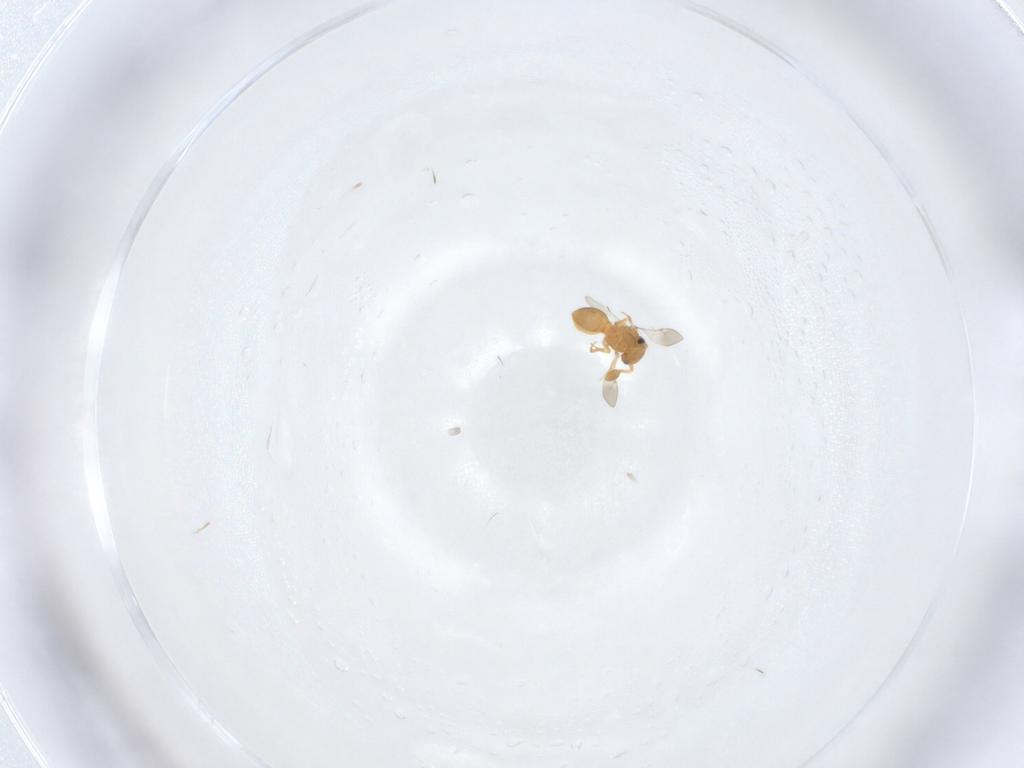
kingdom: Animalia
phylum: Arthropoda
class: Insecta
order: Hymenoptera
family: Scelionidae
